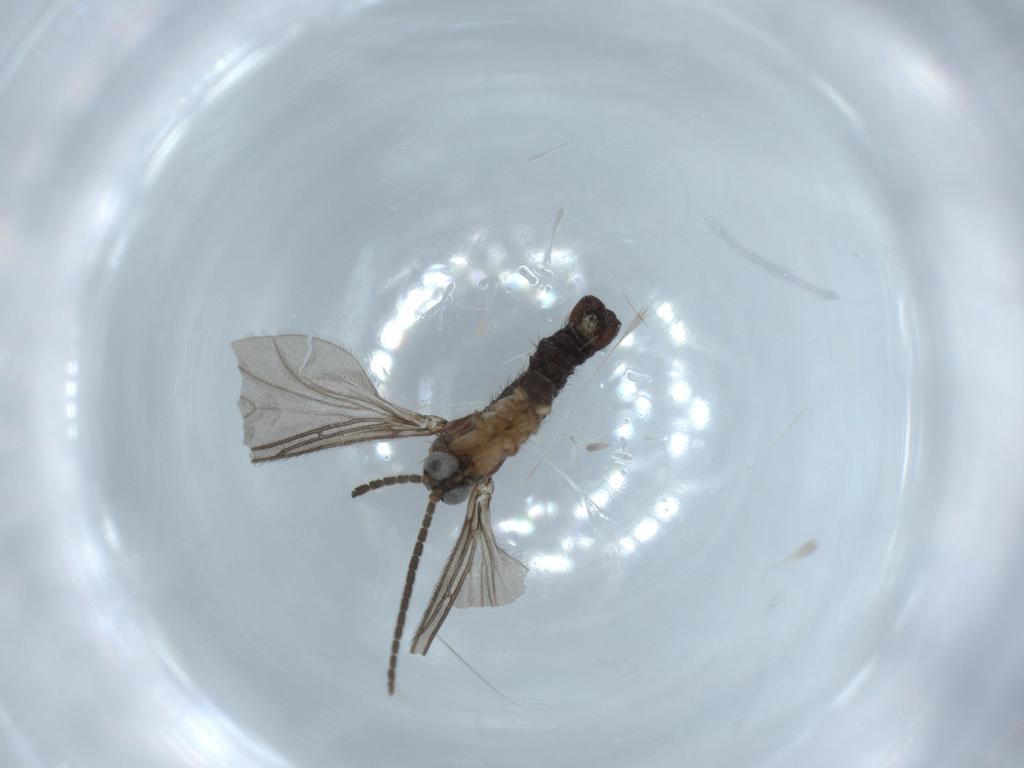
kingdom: Animalia
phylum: Arthropoda
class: Insecta
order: Diptera
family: Sciaridae
